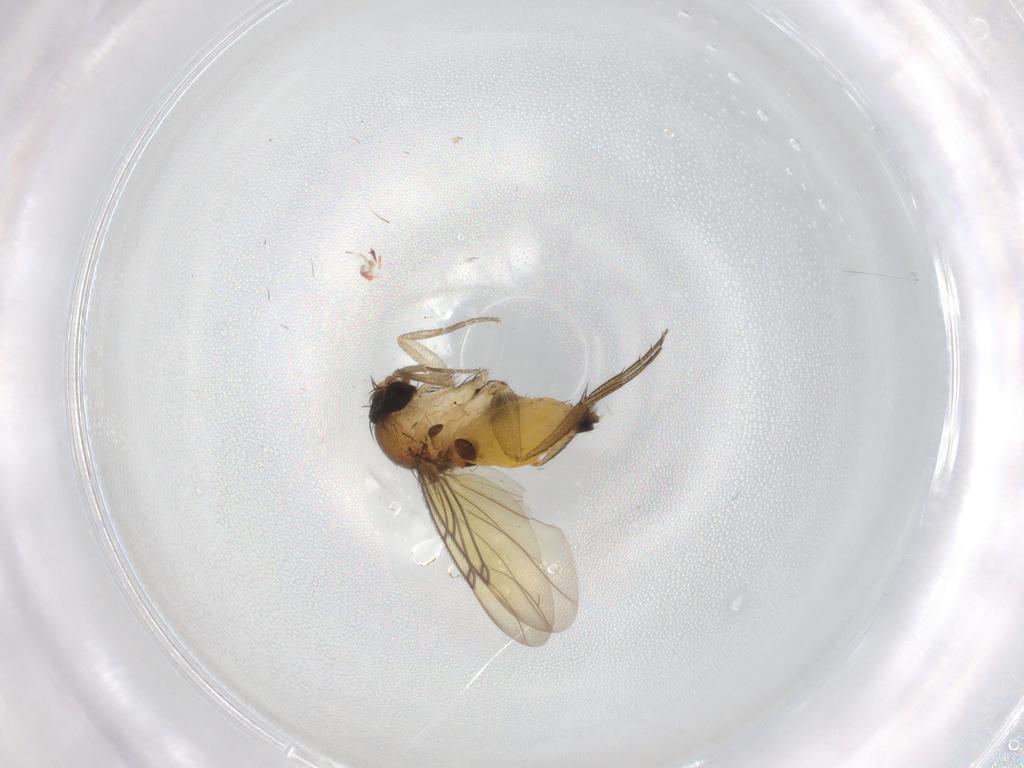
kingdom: Animalia
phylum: Arthropoda
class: Insecta
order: Diptera
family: Tabanidae
